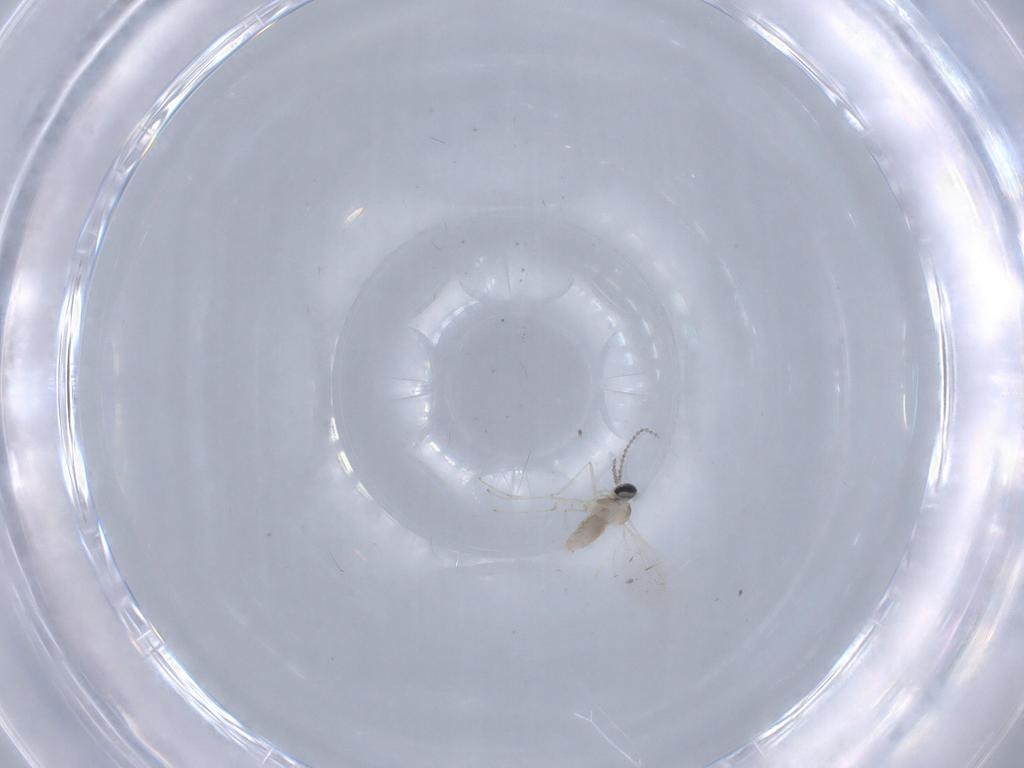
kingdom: Animalia
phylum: Arthropoda
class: Insecta
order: Diptera
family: Cecidomyiidae
